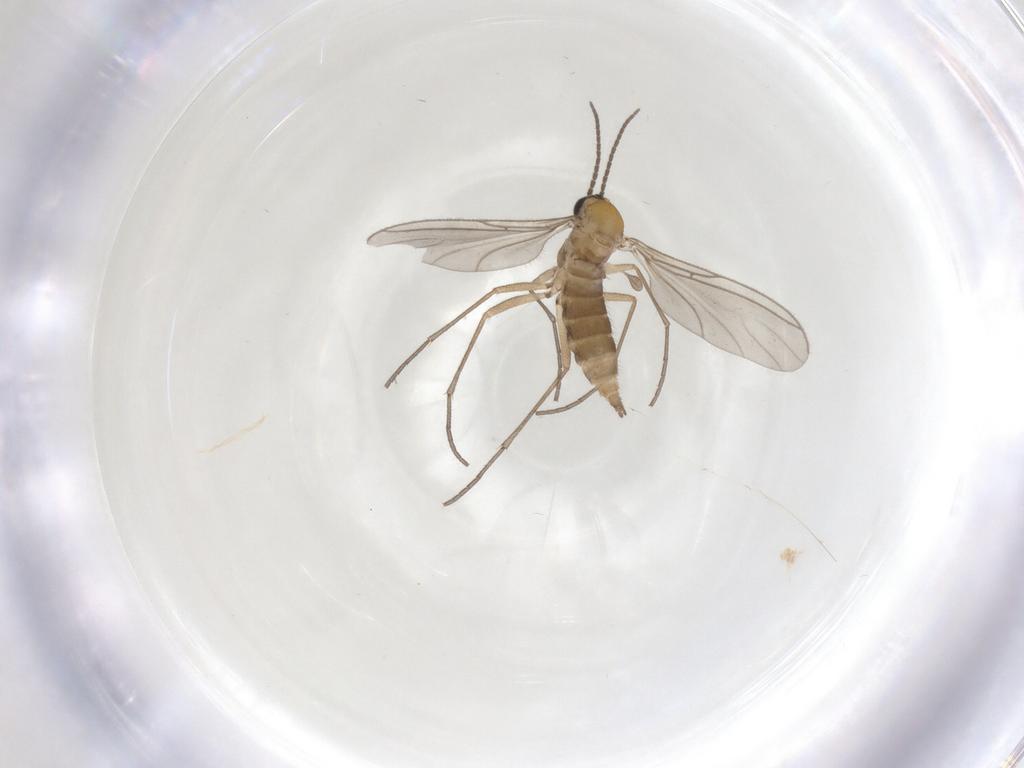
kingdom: Animalia
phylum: Arthropoda
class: Insecta
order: Diptera
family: Sciaridae
